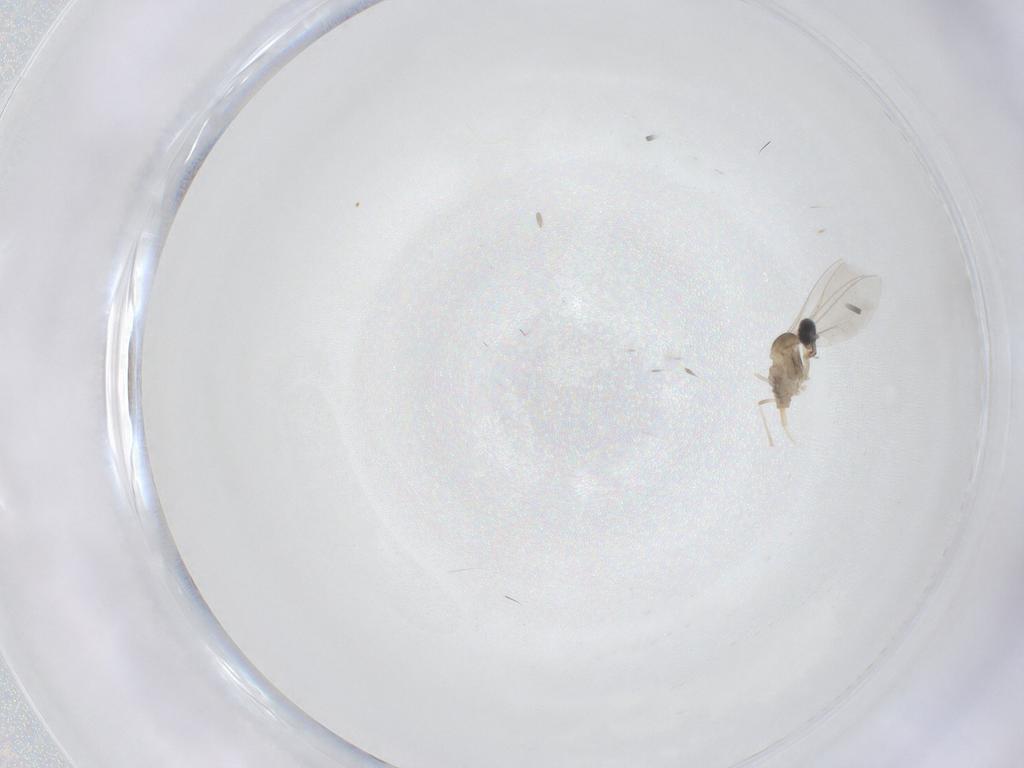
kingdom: Animalia
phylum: Arthropoda
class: Insecta
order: Diptera
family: Cecidomyiidae
